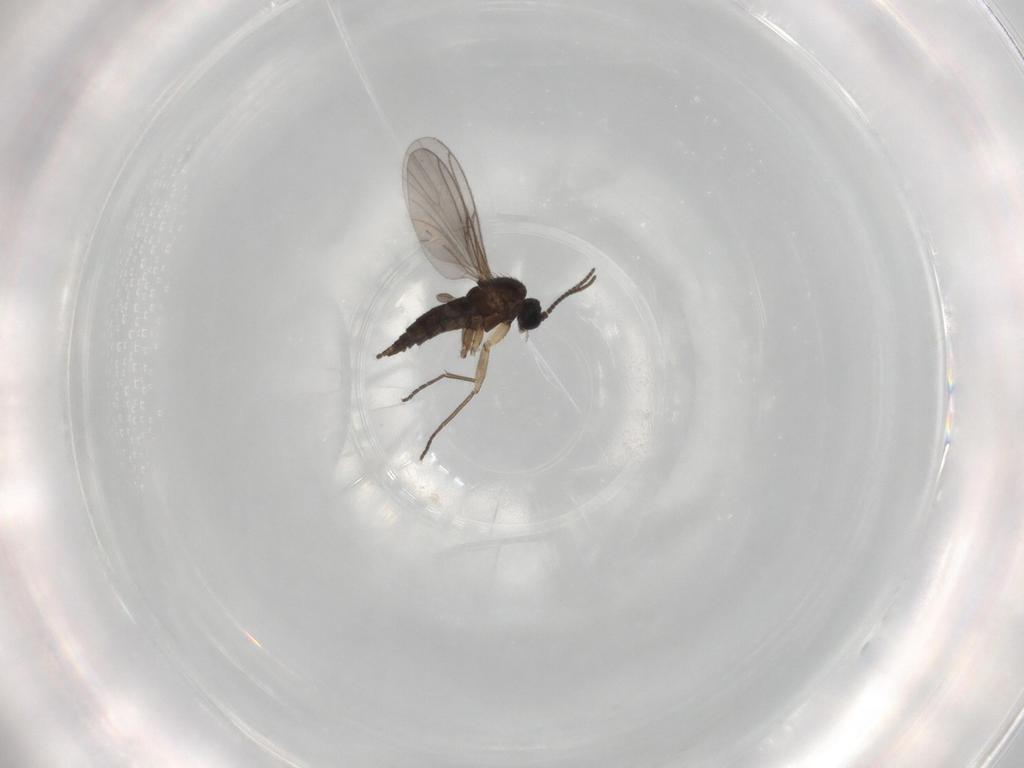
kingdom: Animalia
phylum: Arthropoda
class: Insecta
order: Diptera
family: Sciaridae
